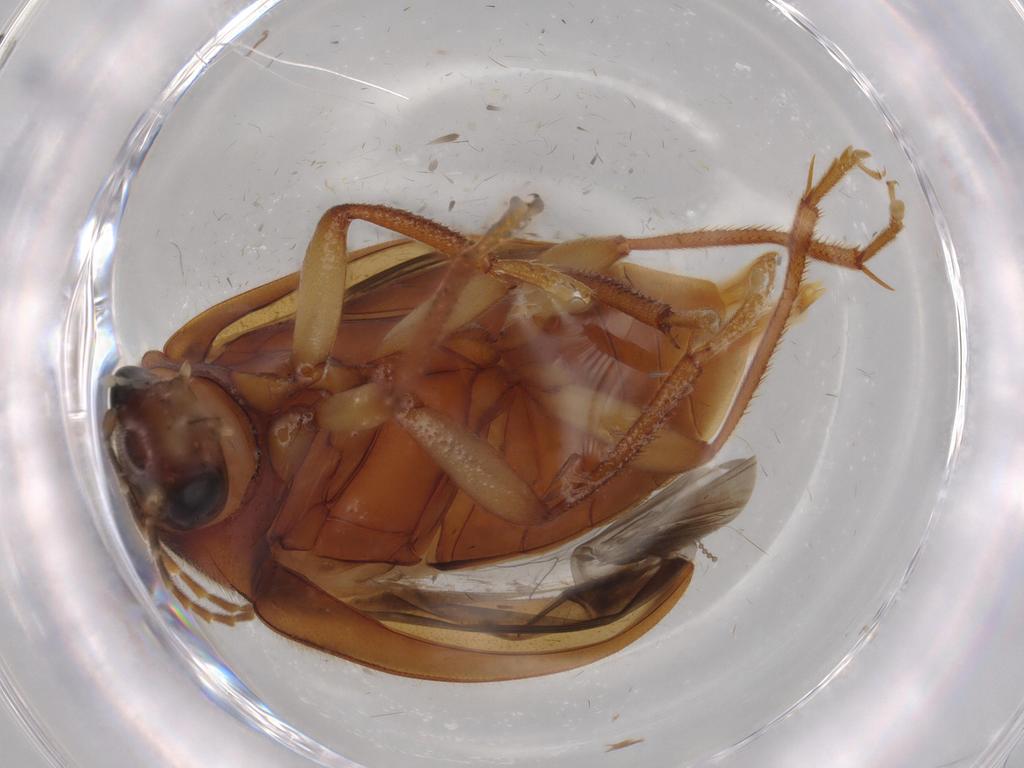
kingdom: Animalia
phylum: Arthropoda
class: Insecta
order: Coleoptera
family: Ptilodactylidae
